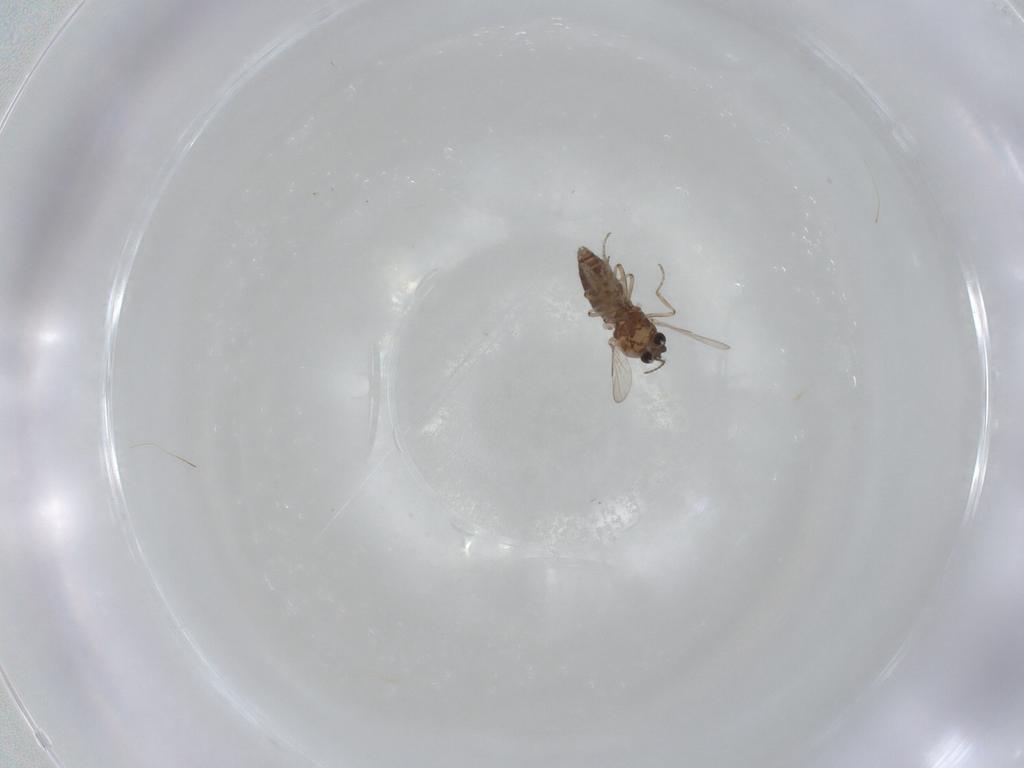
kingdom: Animalia
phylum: Arthropoda
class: Insecta
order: Diptera
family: Ceratopogonidae
